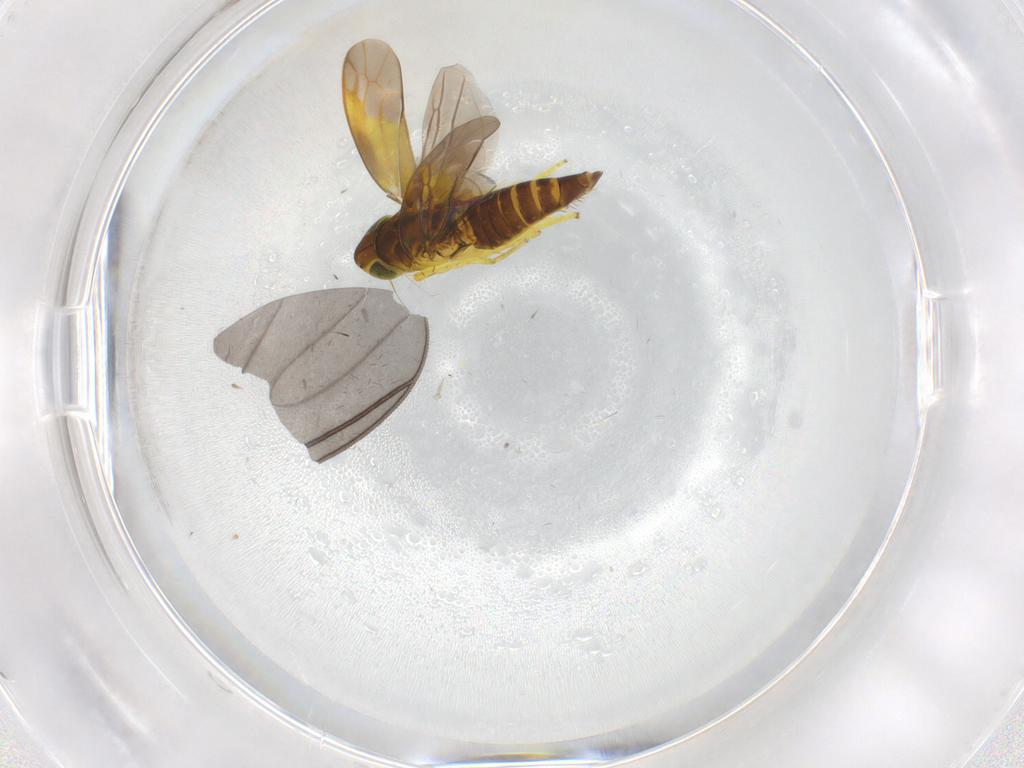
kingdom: Animalia
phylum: Arthropoda
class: Insecta
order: Hemiptera
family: Cicadellidae
